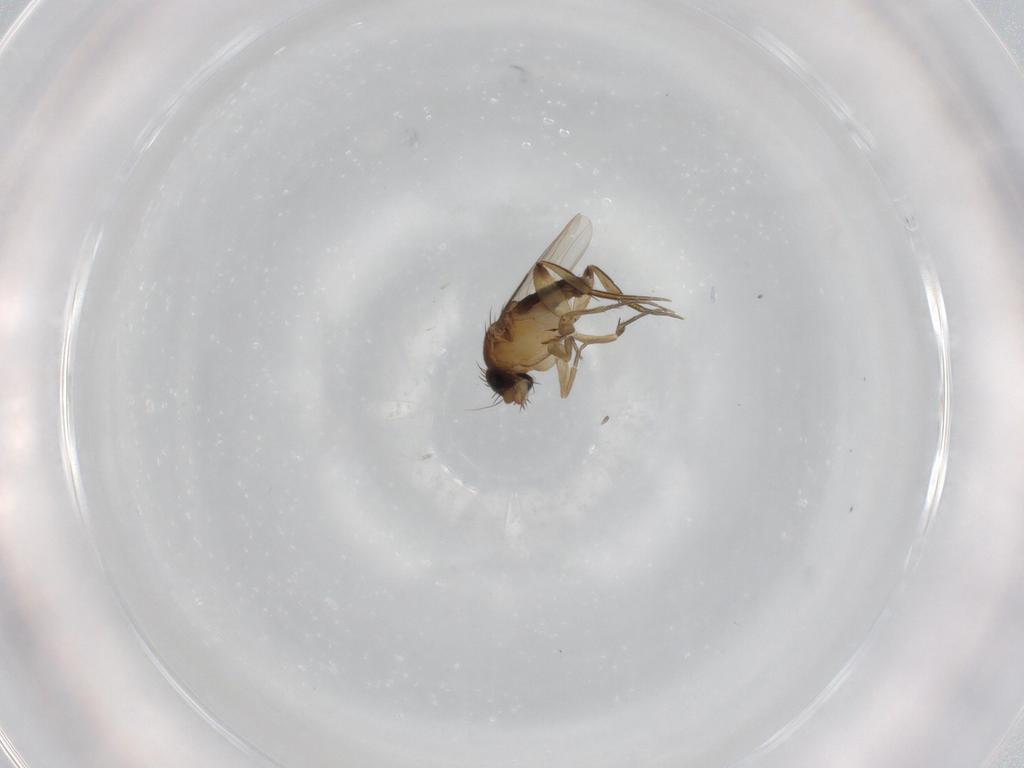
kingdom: Animalia
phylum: Arthropoda
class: Insecta
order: Diptera
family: Phoridae
